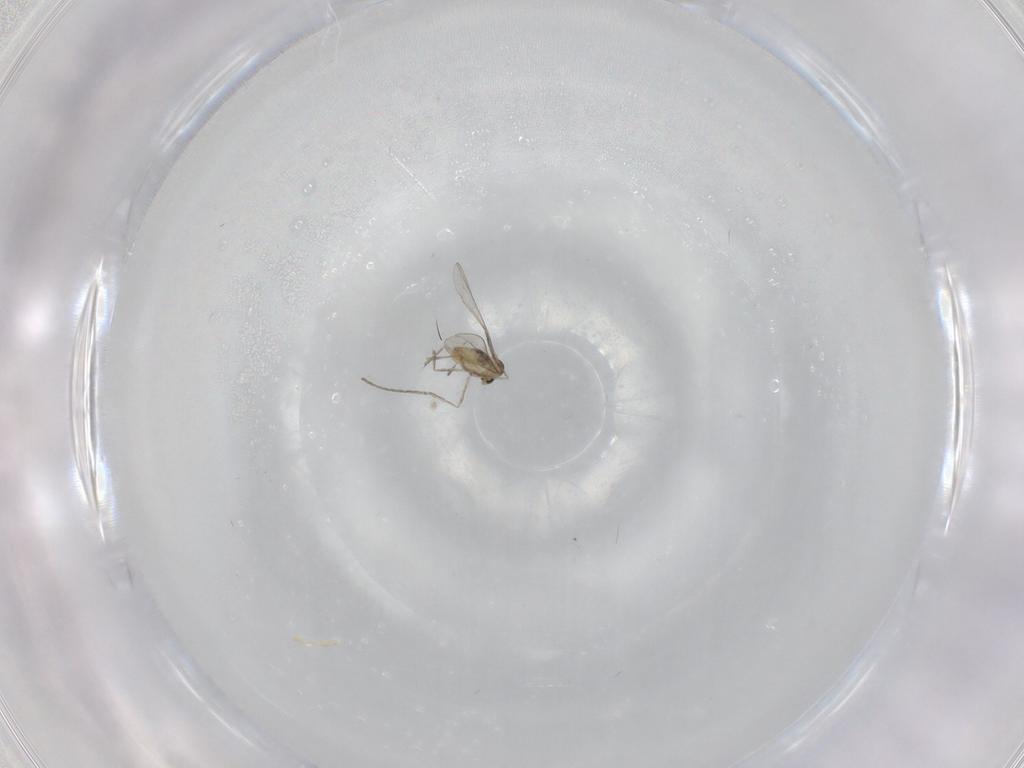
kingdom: Animalia
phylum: Arthropoda
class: Insecta
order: Diptera
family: Cecidomyiidae
